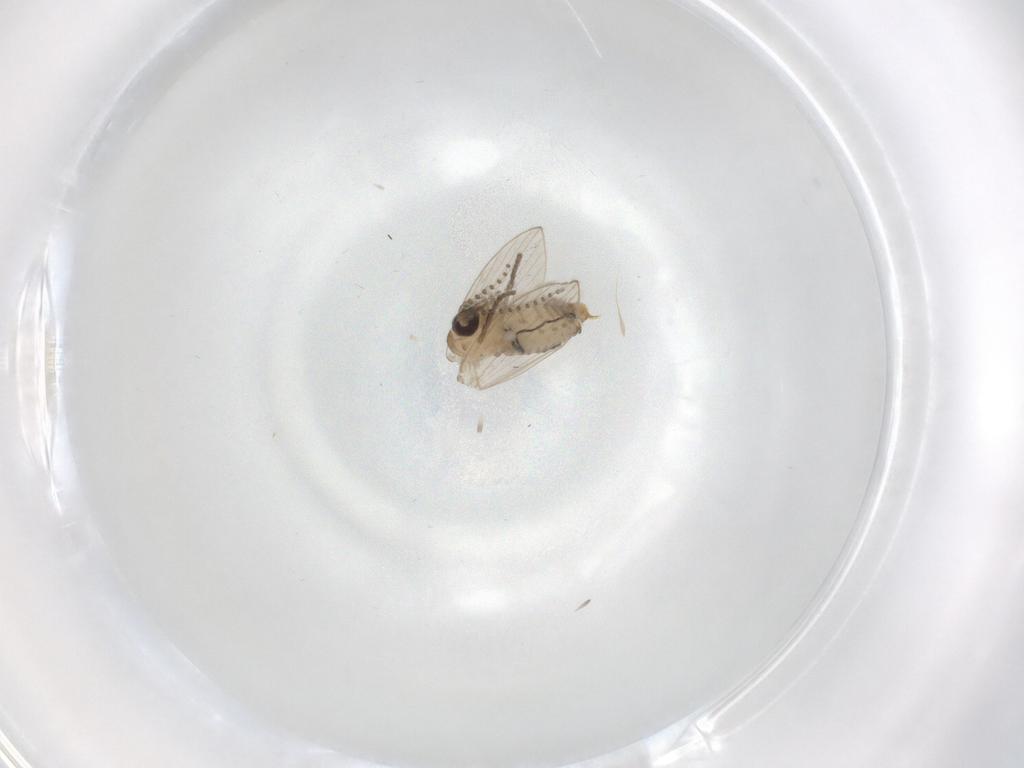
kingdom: Animalia
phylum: Arthropoda
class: Insecta
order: Diptera
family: Psychodidae
